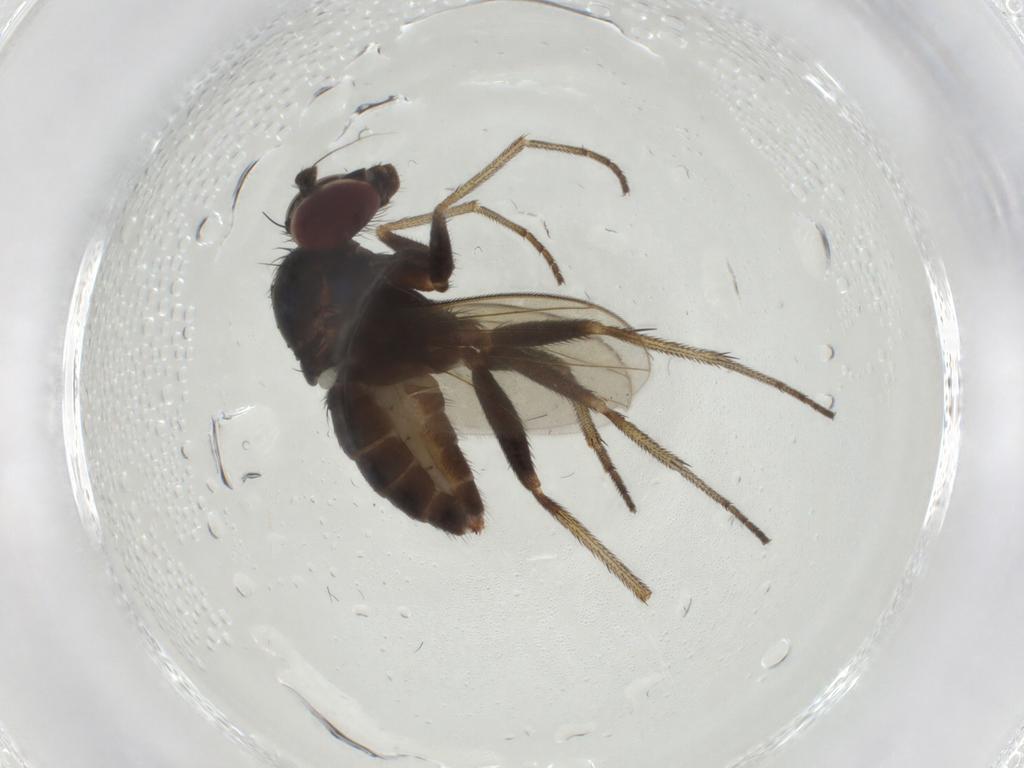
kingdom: Animalia
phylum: Arthropoda
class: Insecta
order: Diptera
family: Dolichopodidae
